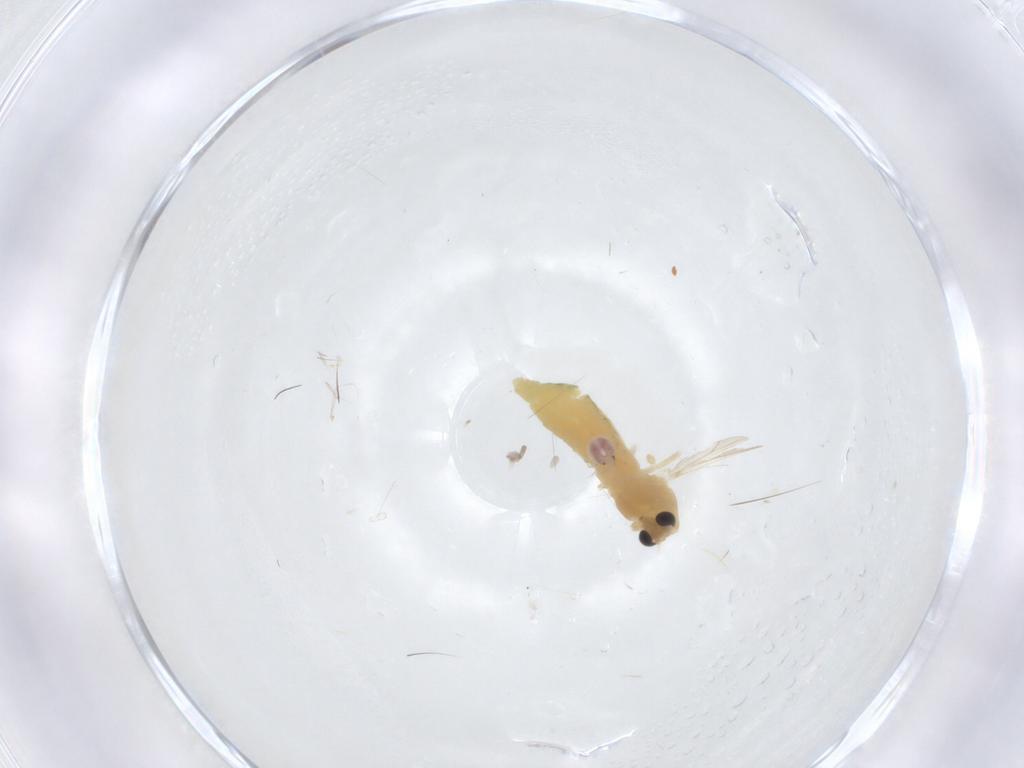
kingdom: Animalia
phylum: Arthropoda
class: Insecta
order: Diptera
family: Chironomidae
